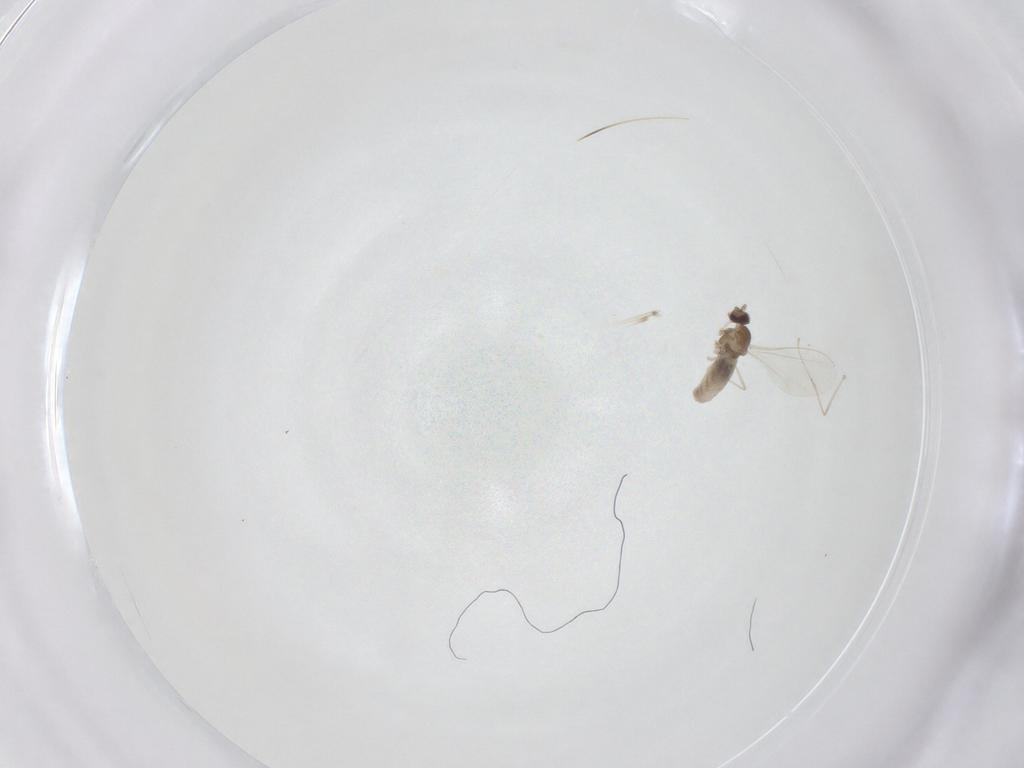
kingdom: Animalia
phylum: Arthropoda
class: Insecta
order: Diptera
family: Cecidomyiidae
